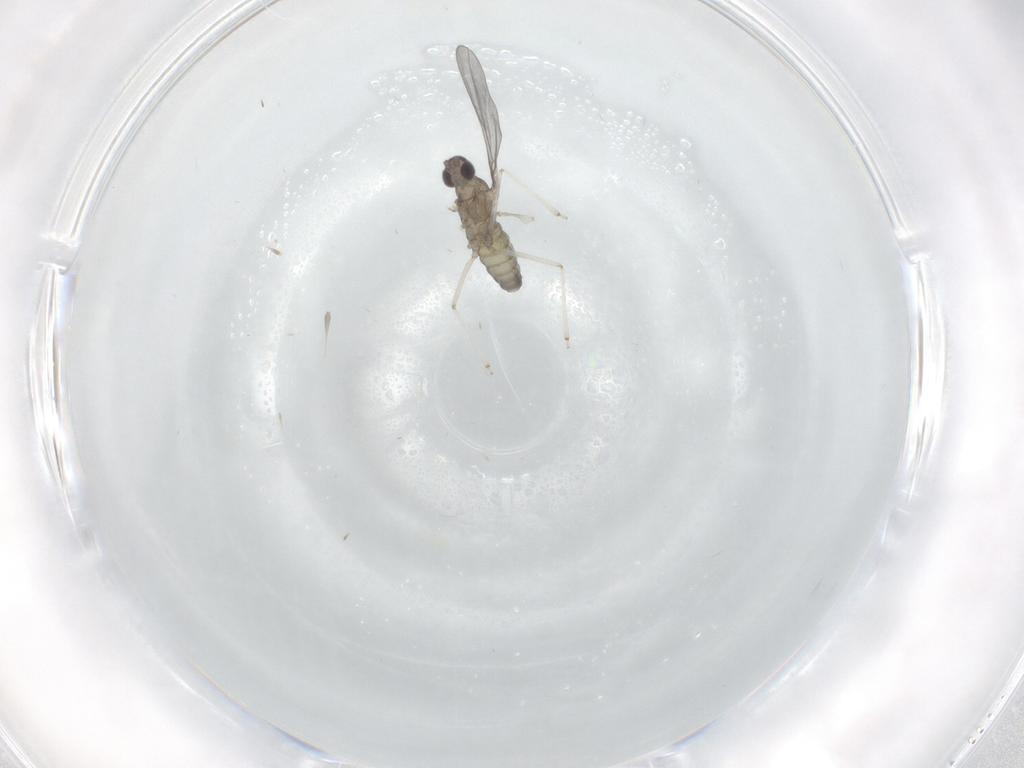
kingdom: Animalia
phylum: Arthropoda
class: Insecta
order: Diptera
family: Cecidomyiidae
